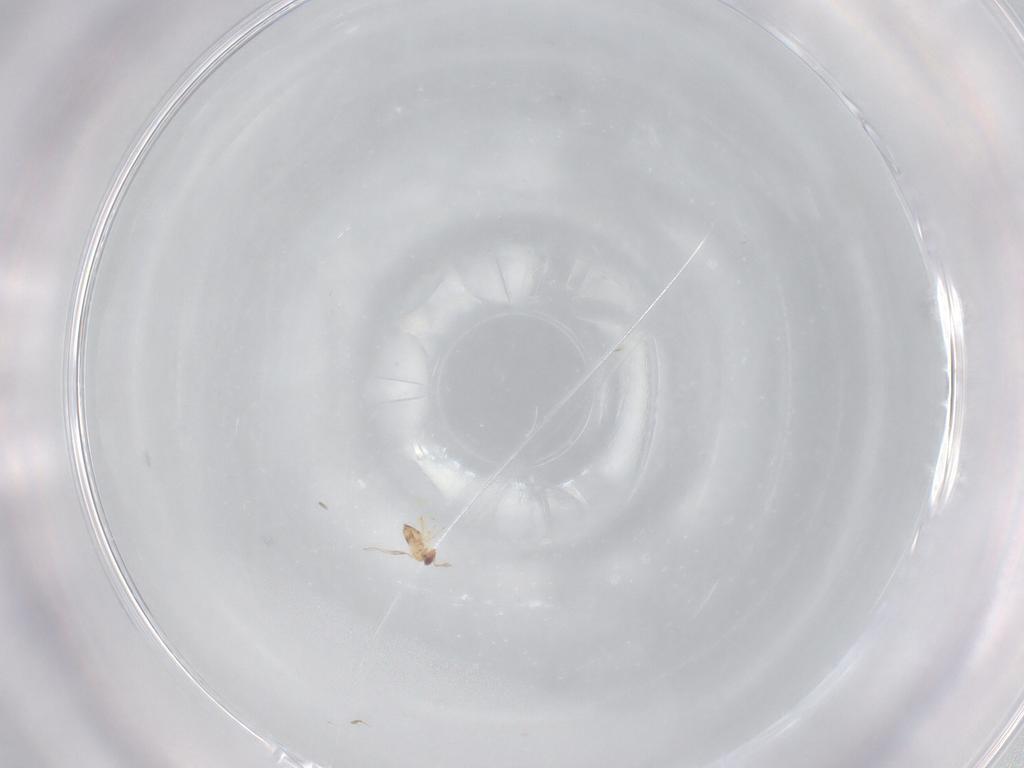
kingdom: Animalia
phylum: Arthropoda
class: Insecta
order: Hymenoptera
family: Trichogrammatidae
